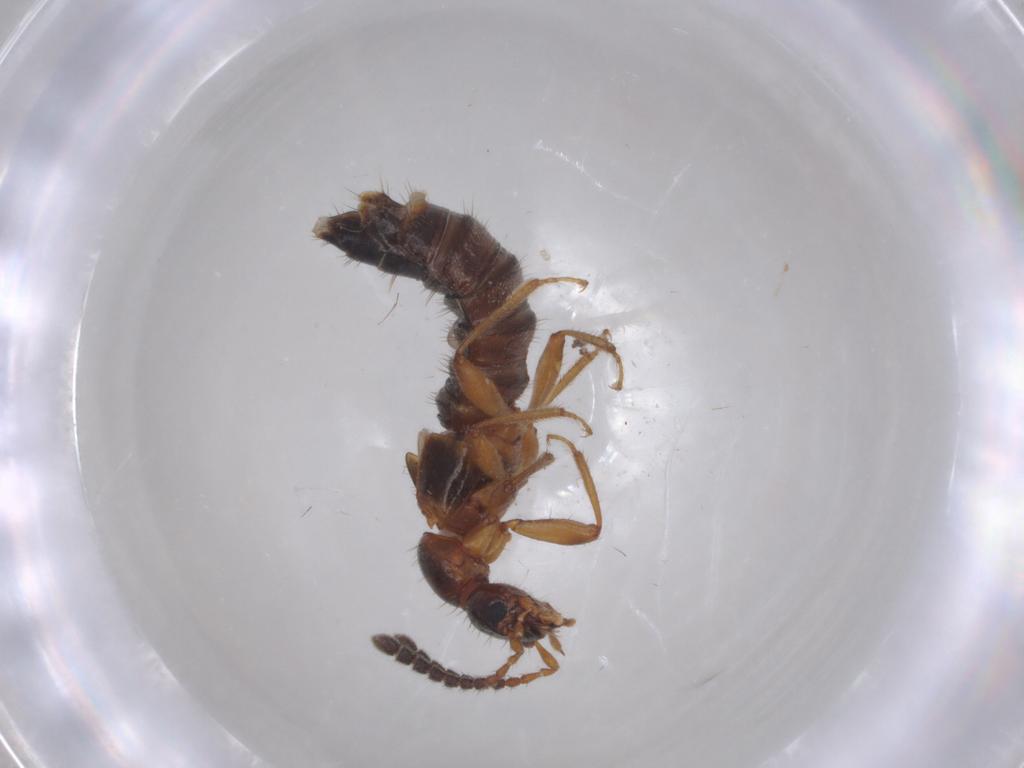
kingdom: Animalia
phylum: Arthropoda
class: Insecta
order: Coleoptera
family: Staphylinidae
